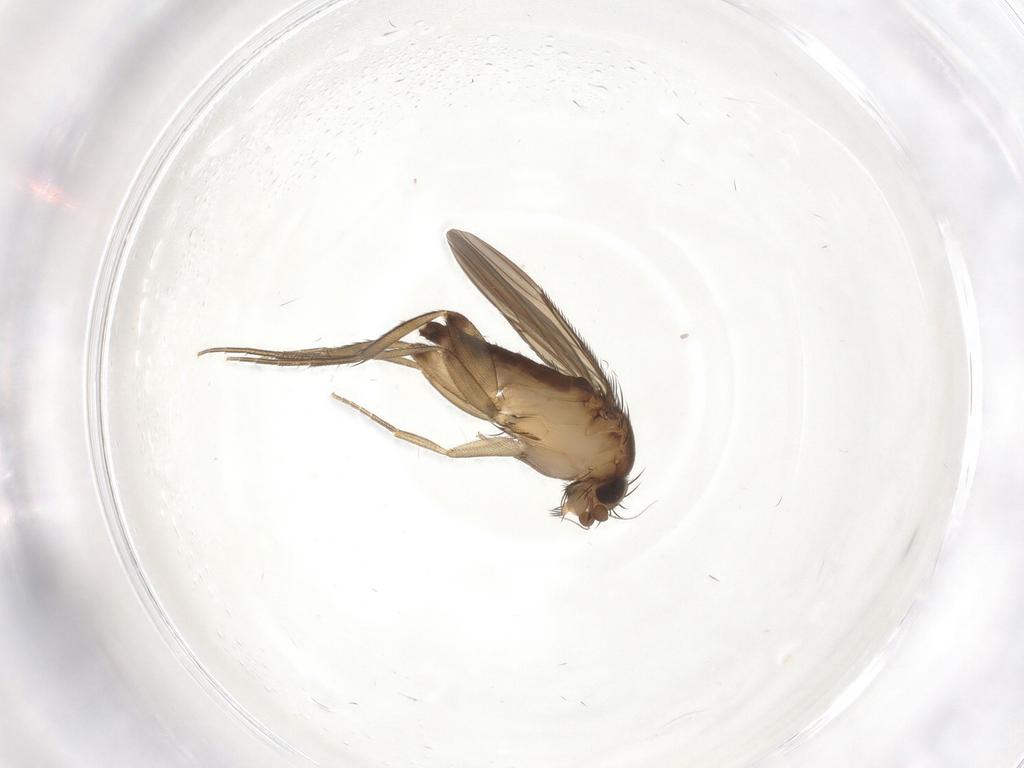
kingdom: Animalia
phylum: Arthropoda
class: Insecta
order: Diptera
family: Phoridae
